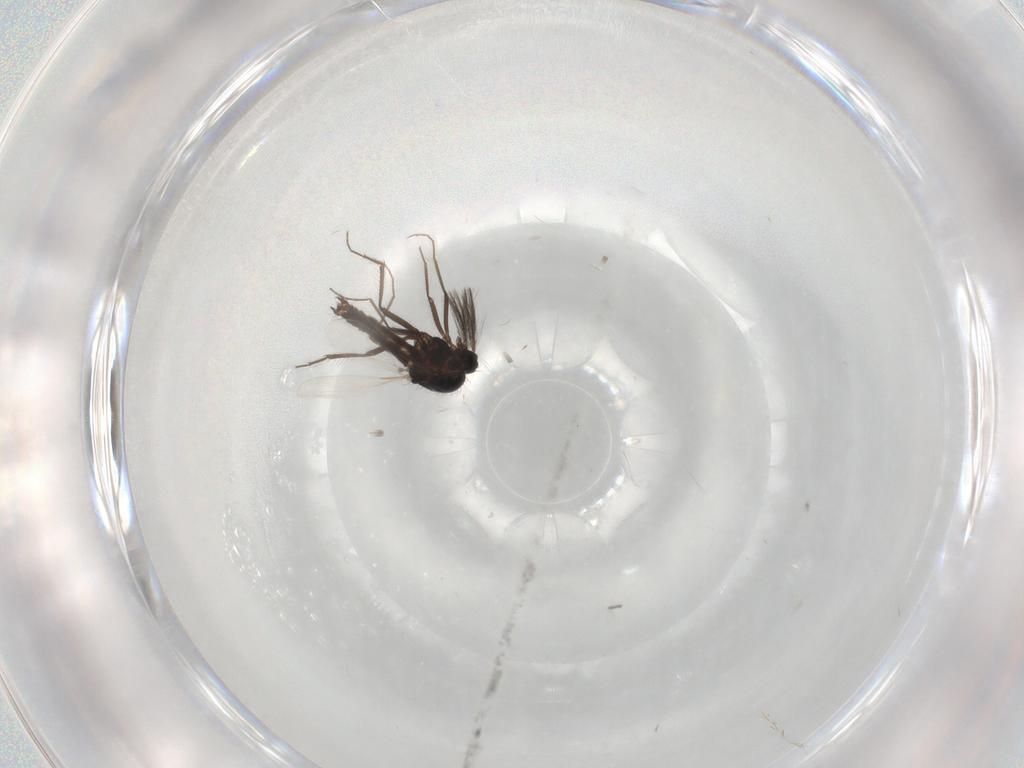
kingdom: Animalia
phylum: Arthropoda
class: Insecta
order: Diptera
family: Ceratopogonidae
